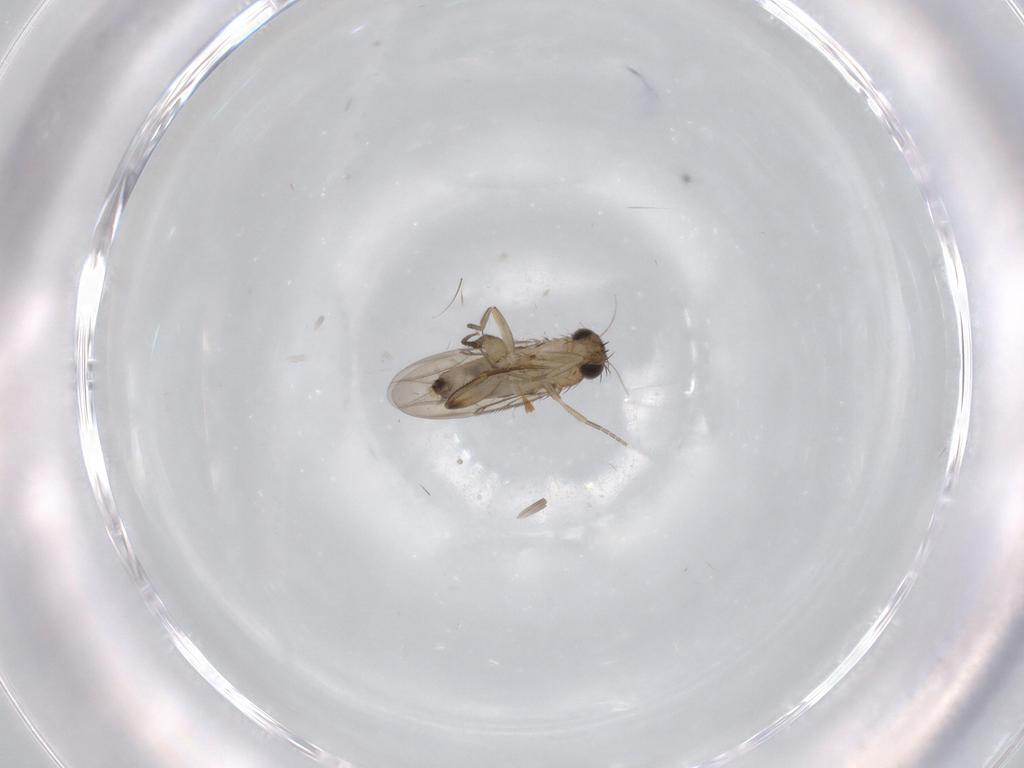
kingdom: Animalia
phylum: Arthropoda
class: Insecta
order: Diptera
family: Phoridae
